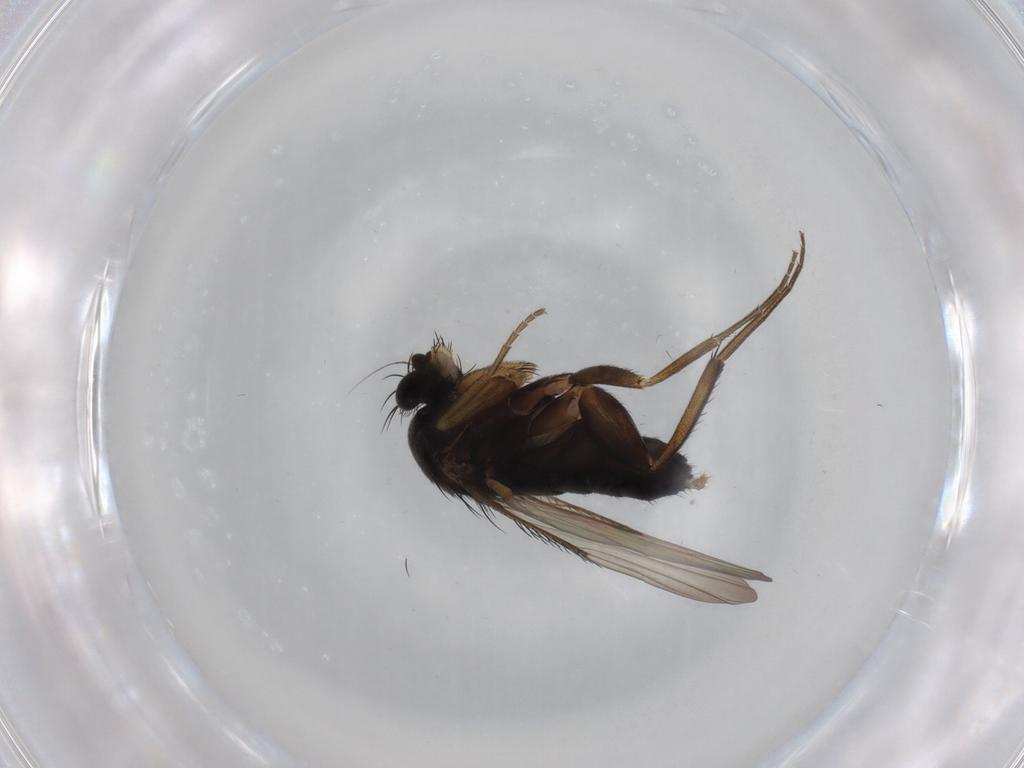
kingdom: Animalia
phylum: Arthropoda
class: Insecta
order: Diptera
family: Phoridae
